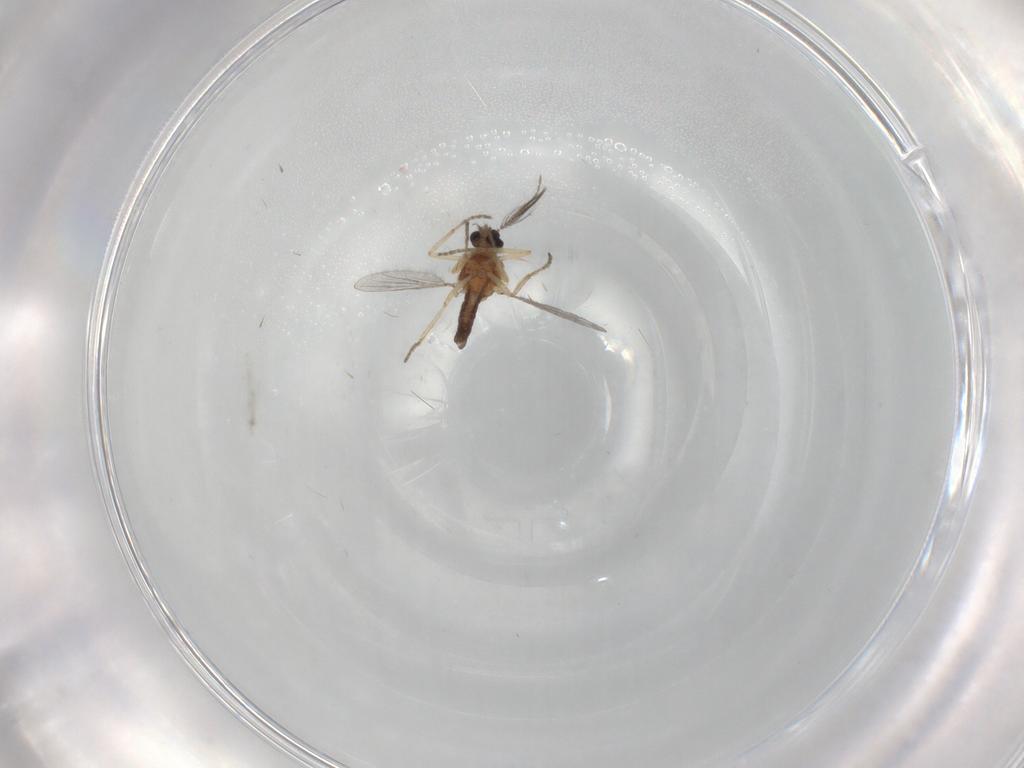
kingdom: Animalia
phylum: Arthropoda
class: Insecta
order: Diptera
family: Ceratopogonidae
